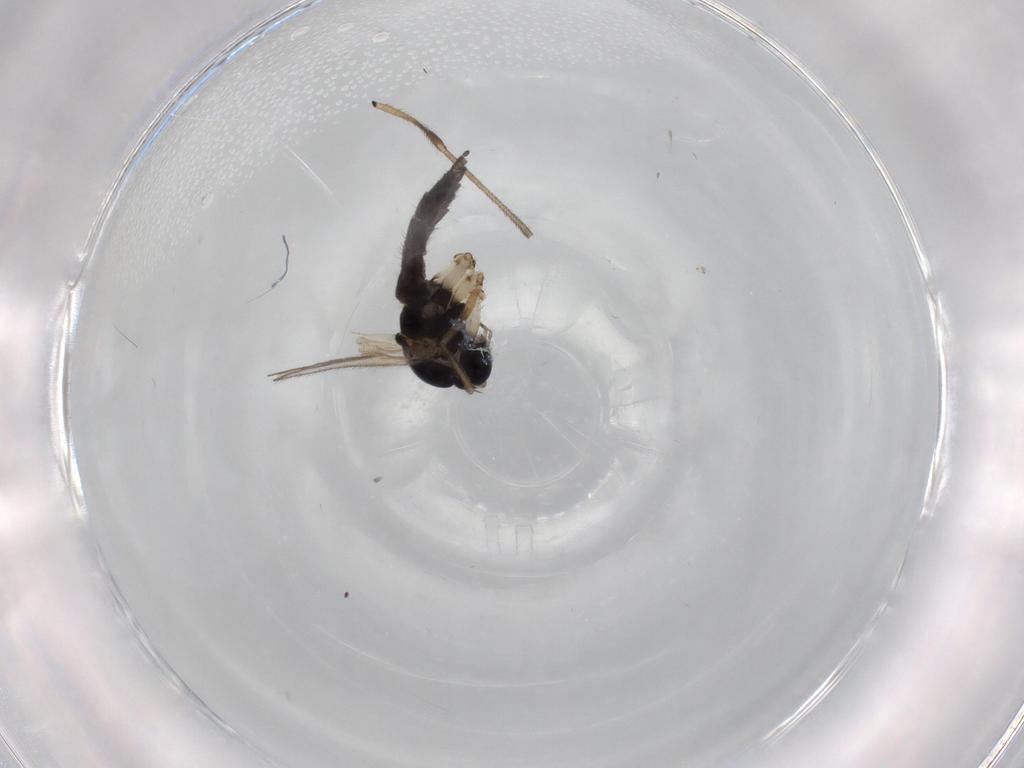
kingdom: Animalia
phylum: Arthropoda
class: Insecta
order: Diptera
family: Sciaridae
